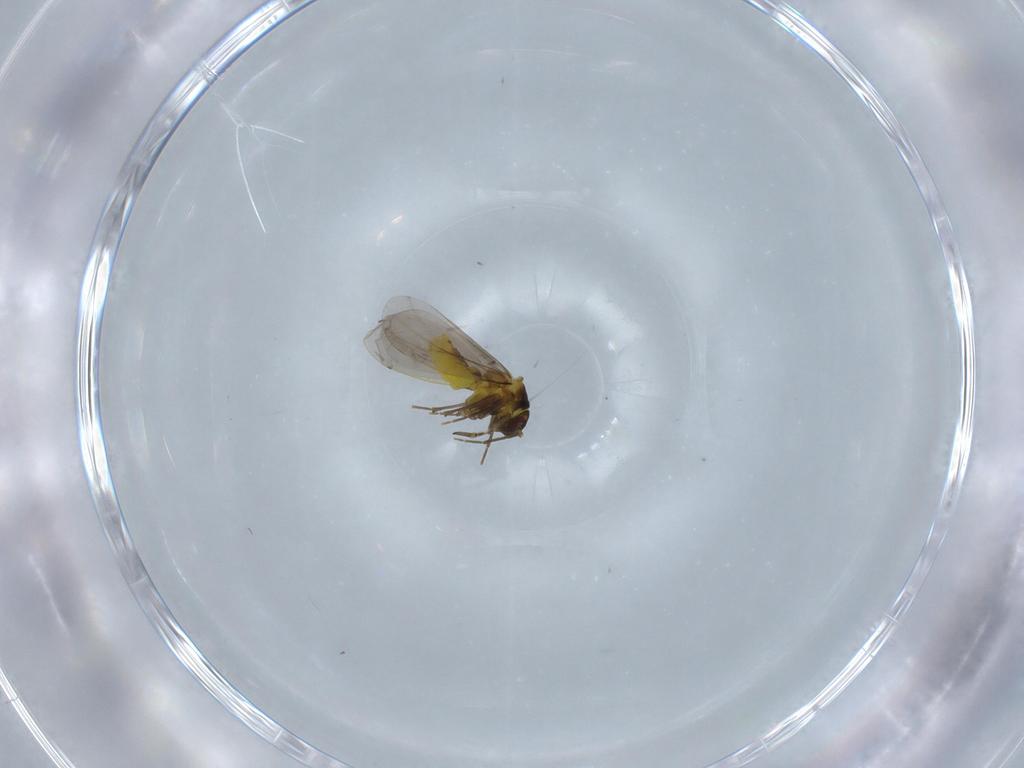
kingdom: Animalia
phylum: Arthropoda
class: Insecta
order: Hemiptera
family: Aleyrodidae
